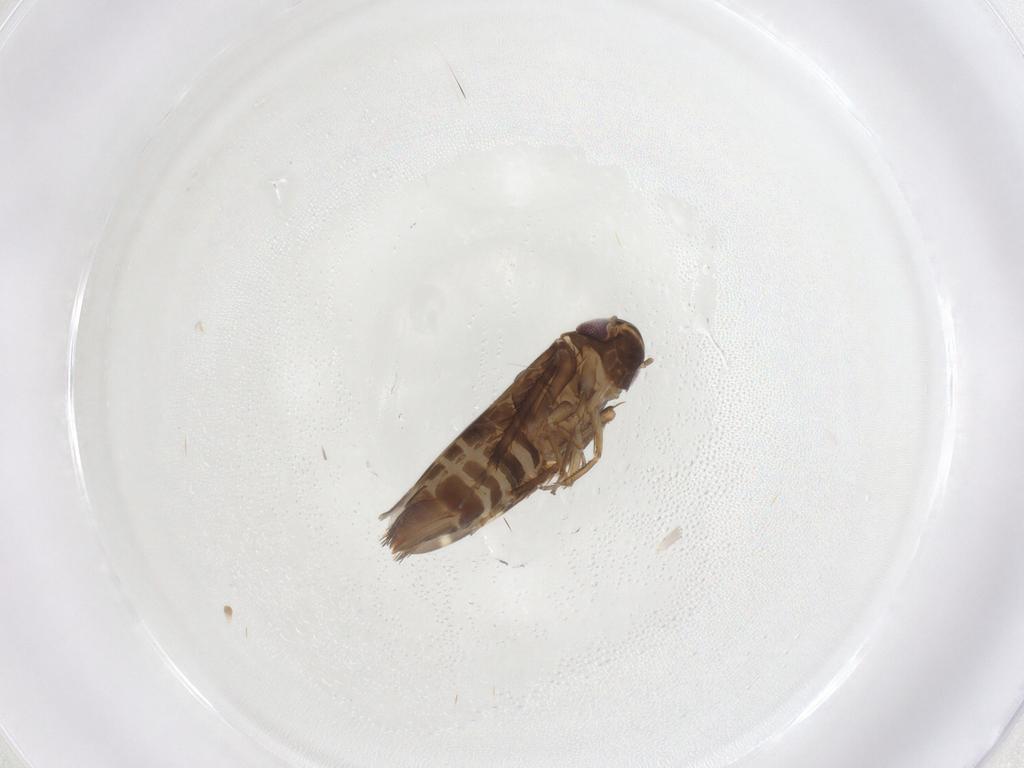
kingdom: Animalia
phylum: Arthropoda
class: Insecta
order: Hemiptera
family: Cicadellidae
